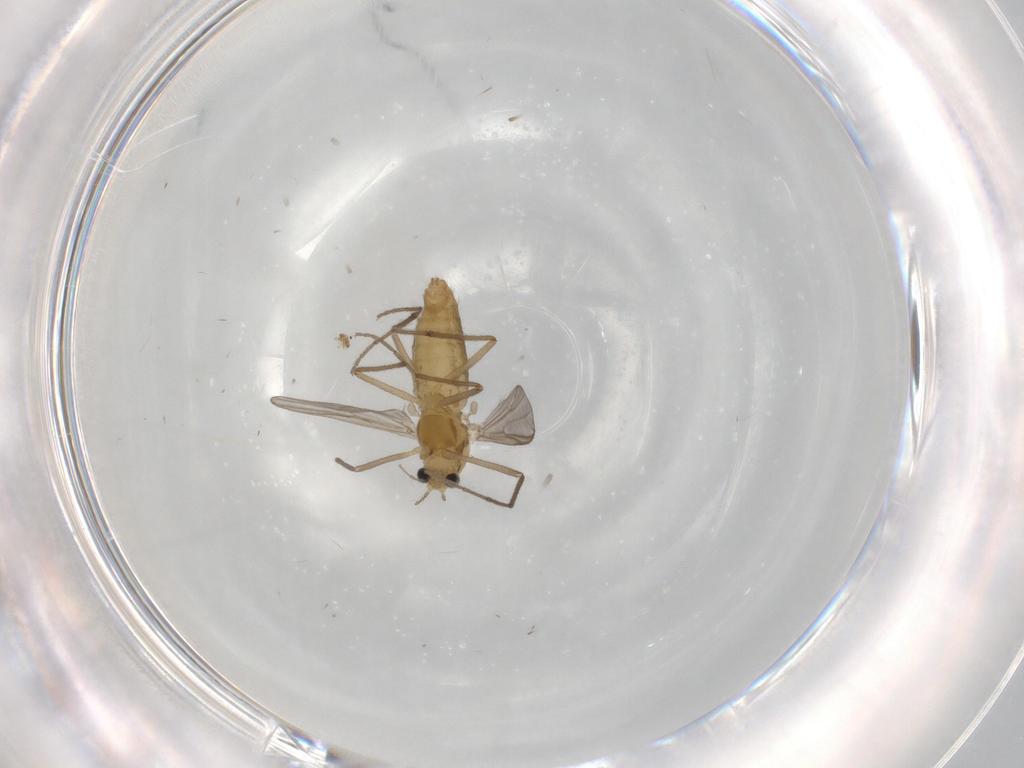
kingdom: Animalia
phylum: Arthropoda
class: Insecta
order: Diptera
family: Chironomidae
